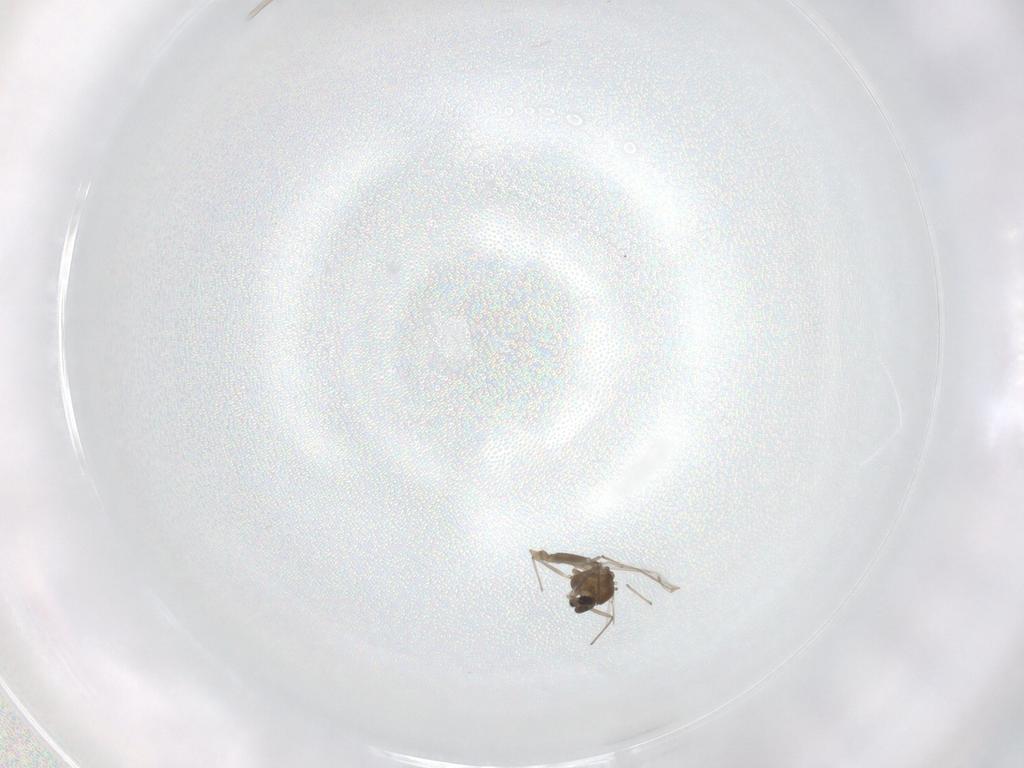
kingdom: Animalia
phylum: Arthropoda
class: Insecta
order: Diptera
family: Chironomidae
